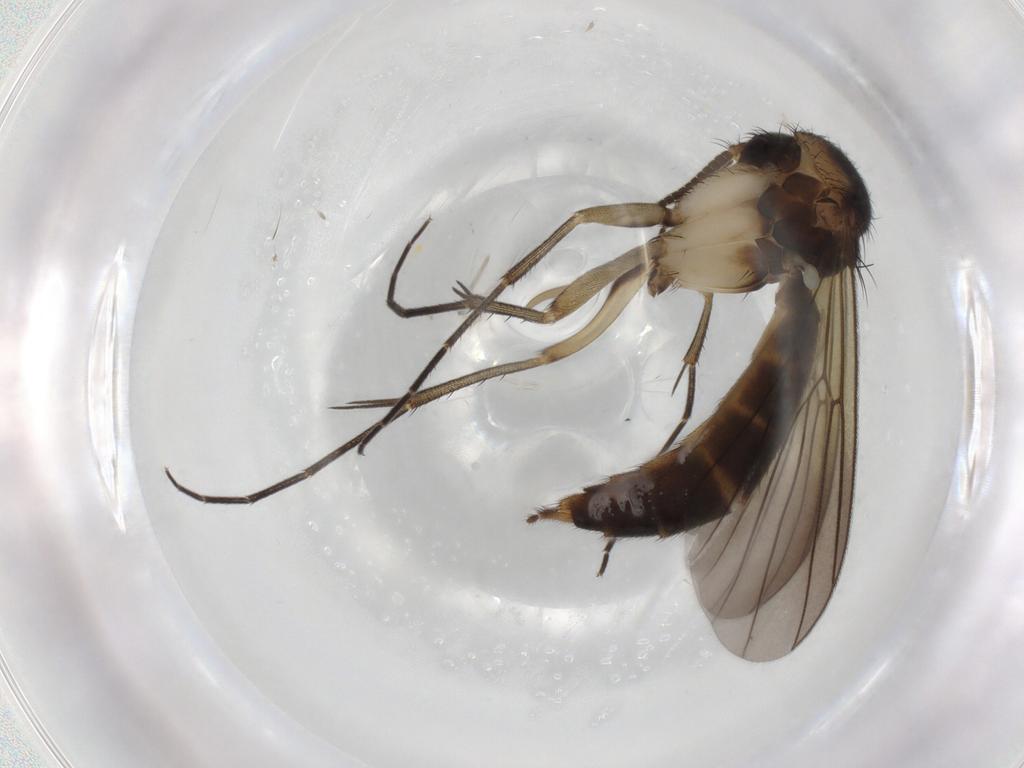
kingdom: Animalia
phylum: Arthropoda
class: Insecta
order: Diptera
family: Mycetophilidae
